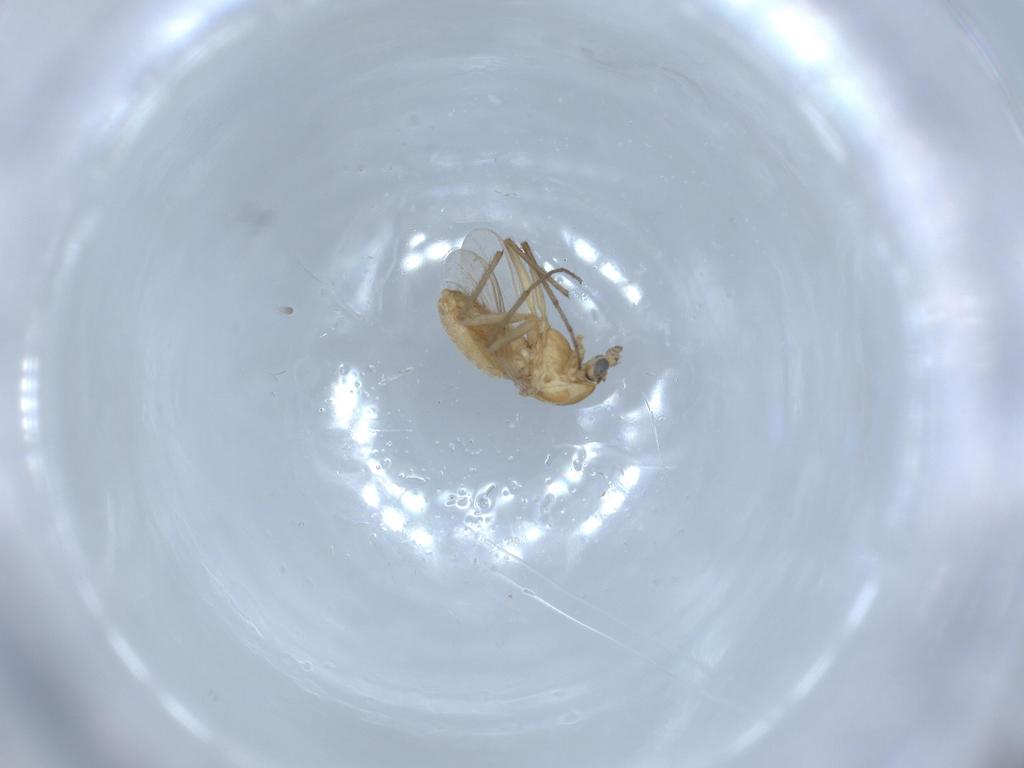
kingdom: Animalia
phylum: Arthropoda
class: Insecta
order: Diptera
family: Chironomidae
